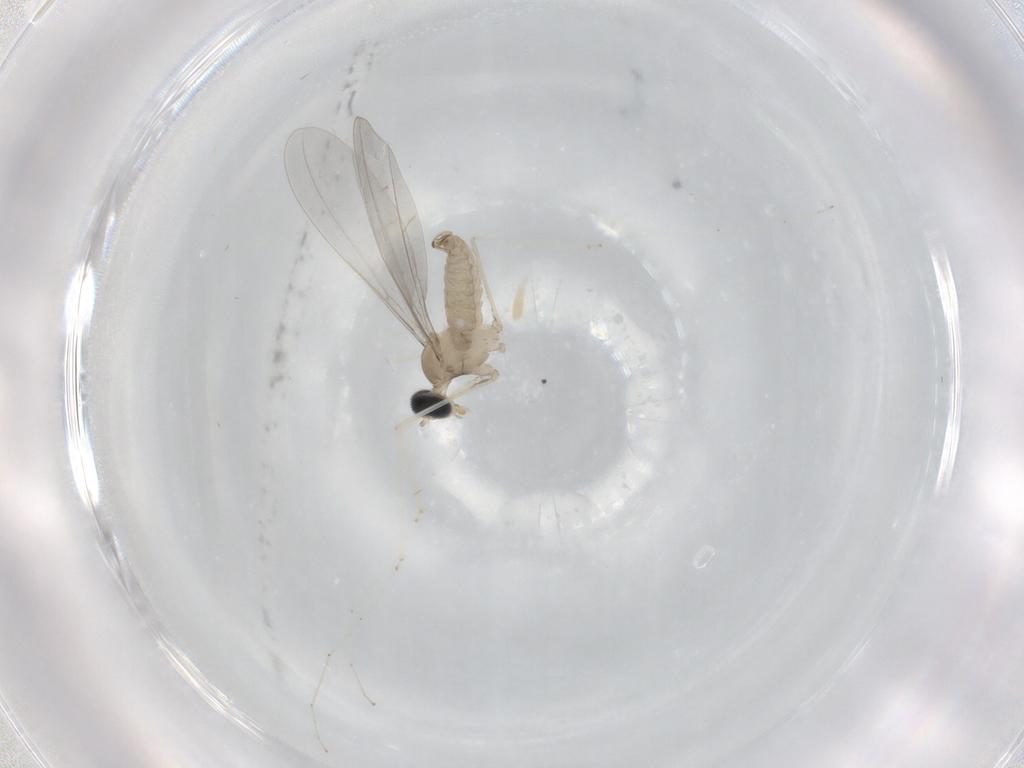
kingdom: Animalia
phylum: Arthropoda
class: Insecta
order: Diptera
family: Cecidomyiidae
